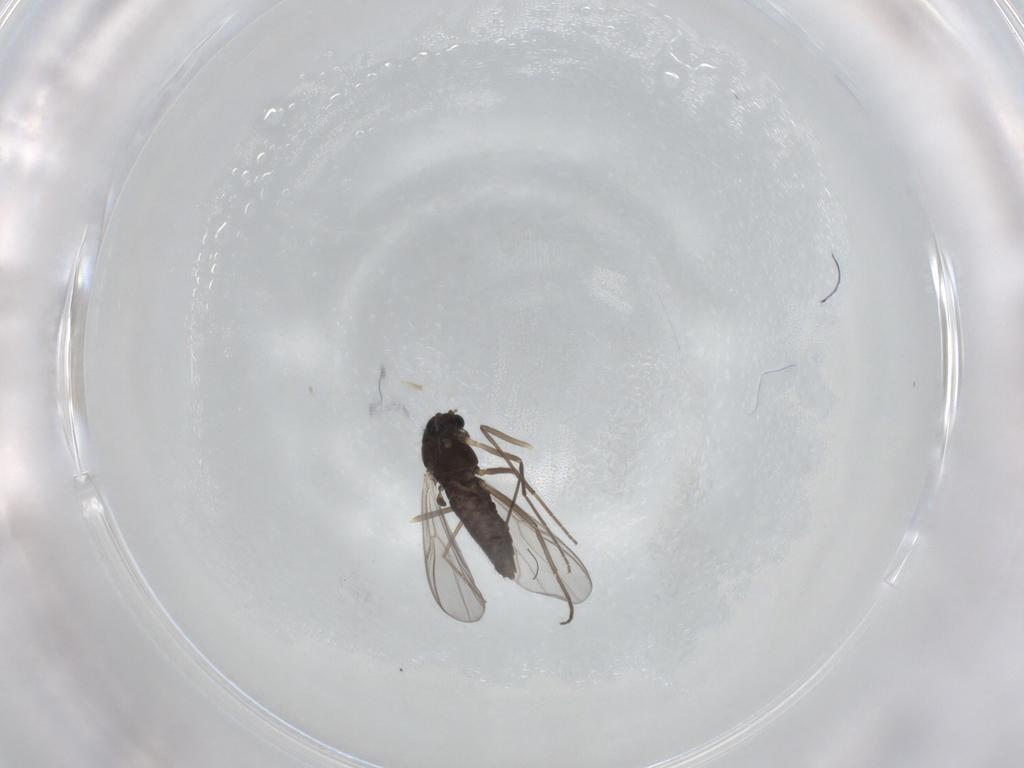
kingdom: Animalia
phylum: Arthropoda
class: Insecta
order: Diptera
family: Chironomidae
